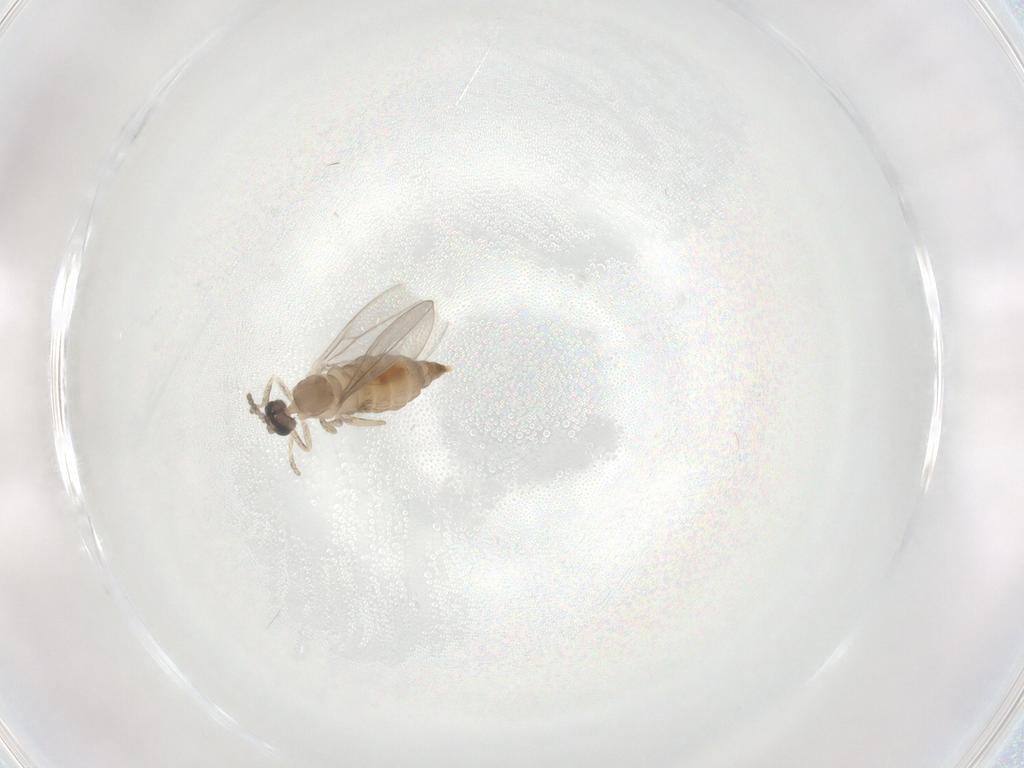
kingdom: Animalia
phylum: Arthropoda
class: Insecta
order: Diptera
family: Cecidomyiidae
